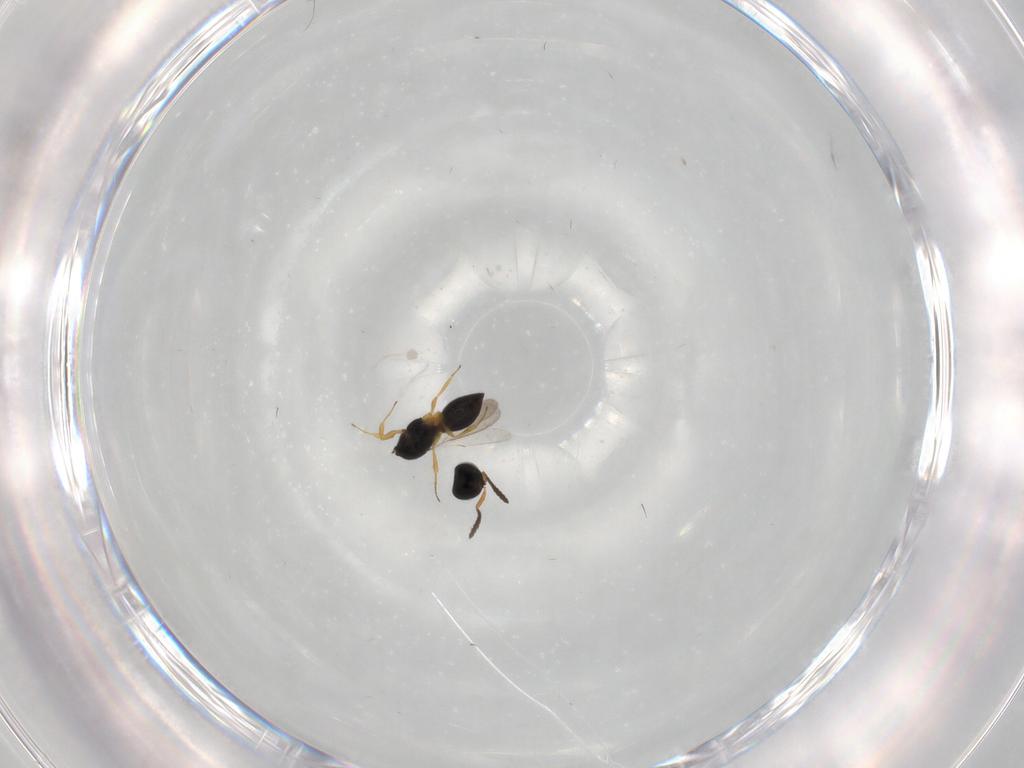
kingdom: Animalia
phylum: Arthropoda
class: Insecta
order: Hymenoptera
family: Scelionidae
